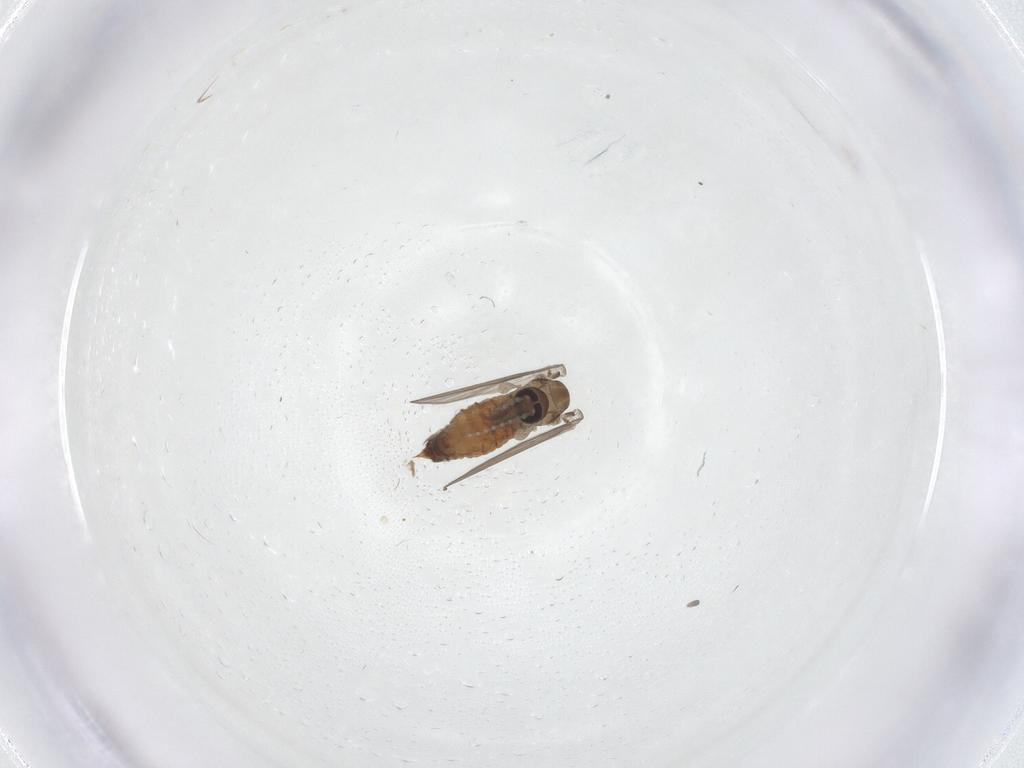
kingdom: Animalia
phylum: Arthropoda
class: Insecta
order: Diptera
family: Psychodidae
